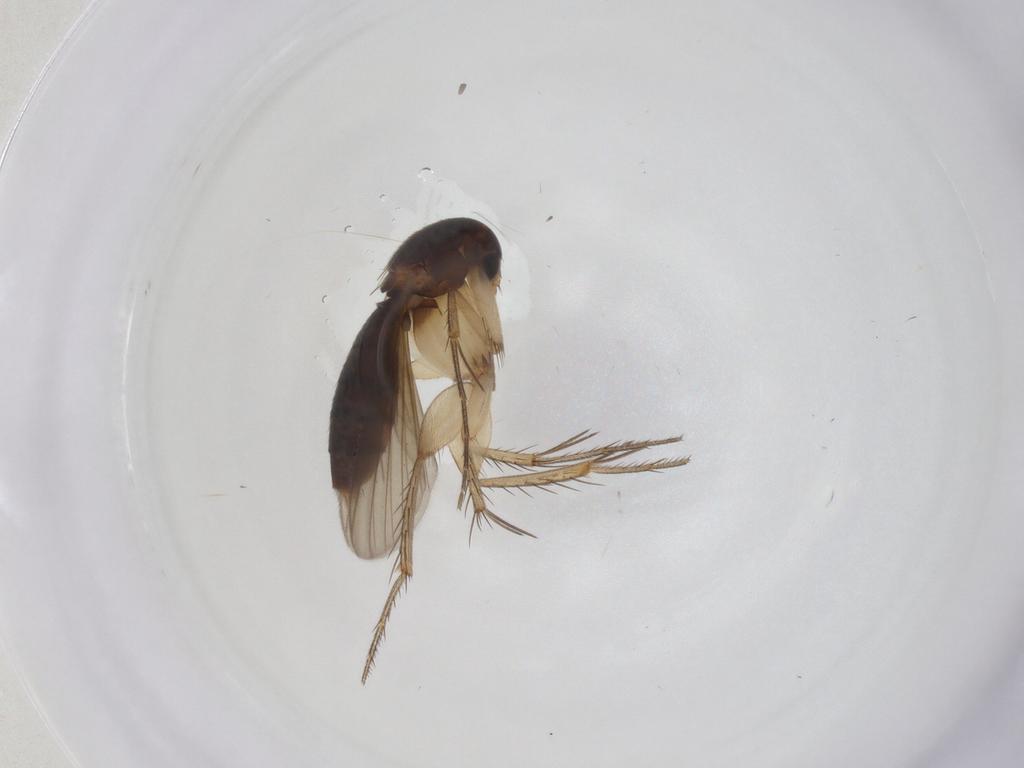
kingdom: Animalia
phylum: Arthropoda
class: Insecta
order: Diptera
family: Mycetophilidae
